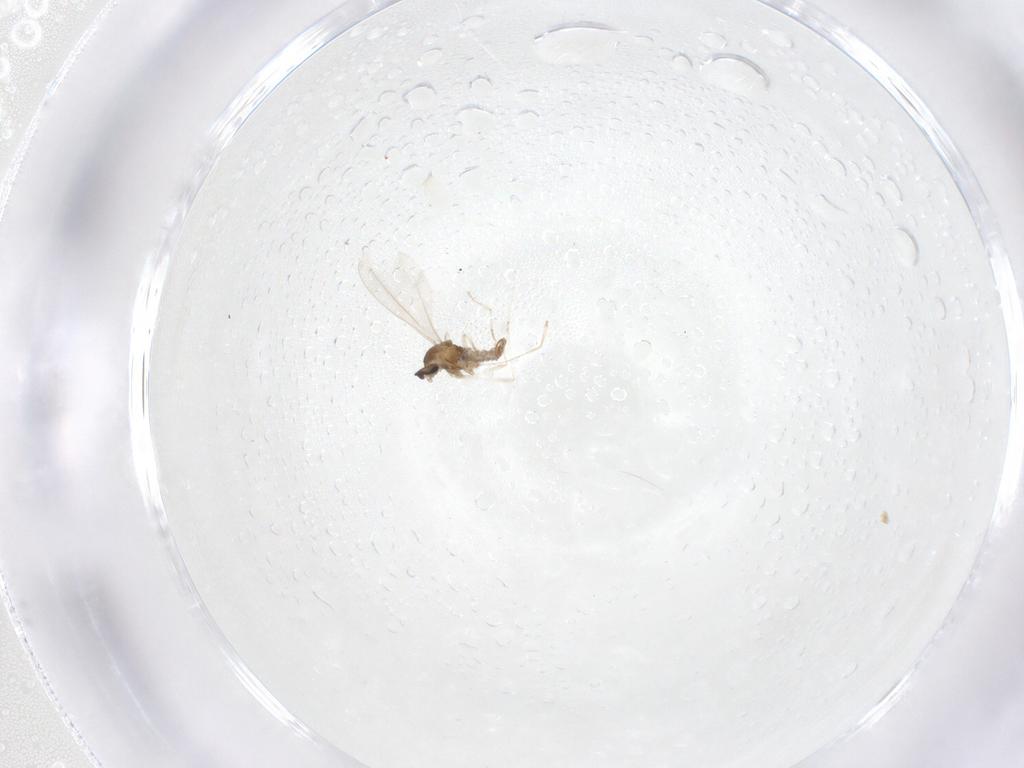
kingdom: Animalia
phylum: Arthropoda
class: Insecta
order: Diptera
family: Cecidomyiidae
